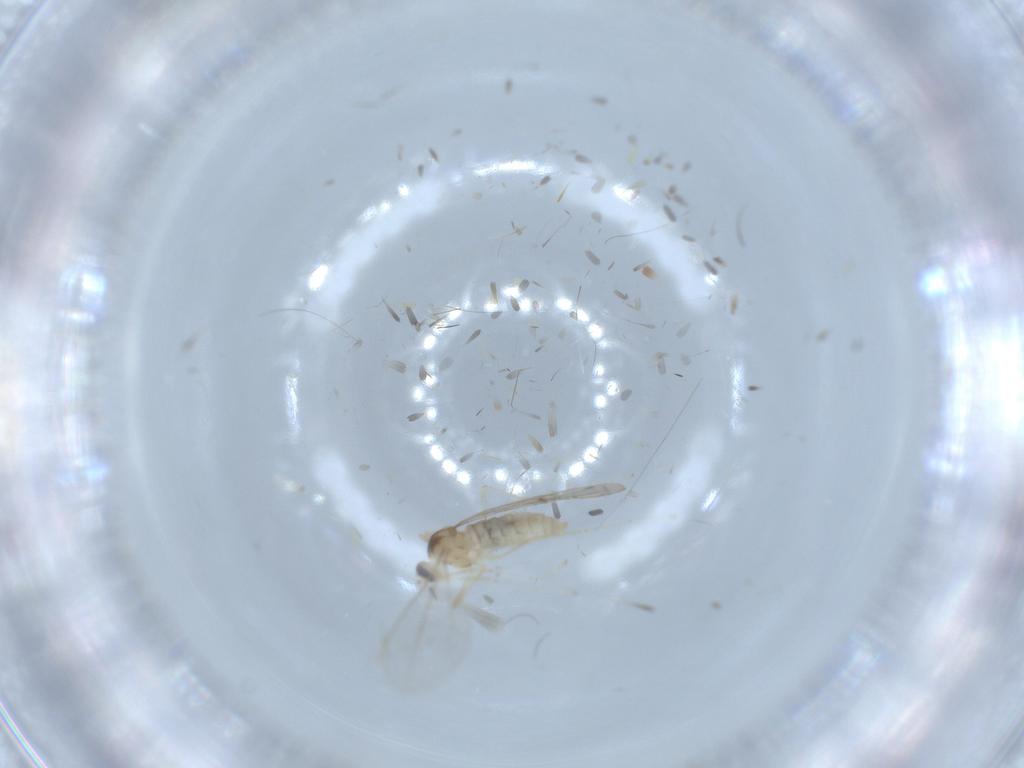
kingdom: Animalia
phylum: Arthropoda
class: Insecta
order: Diptera
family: Cecidomyiidae
